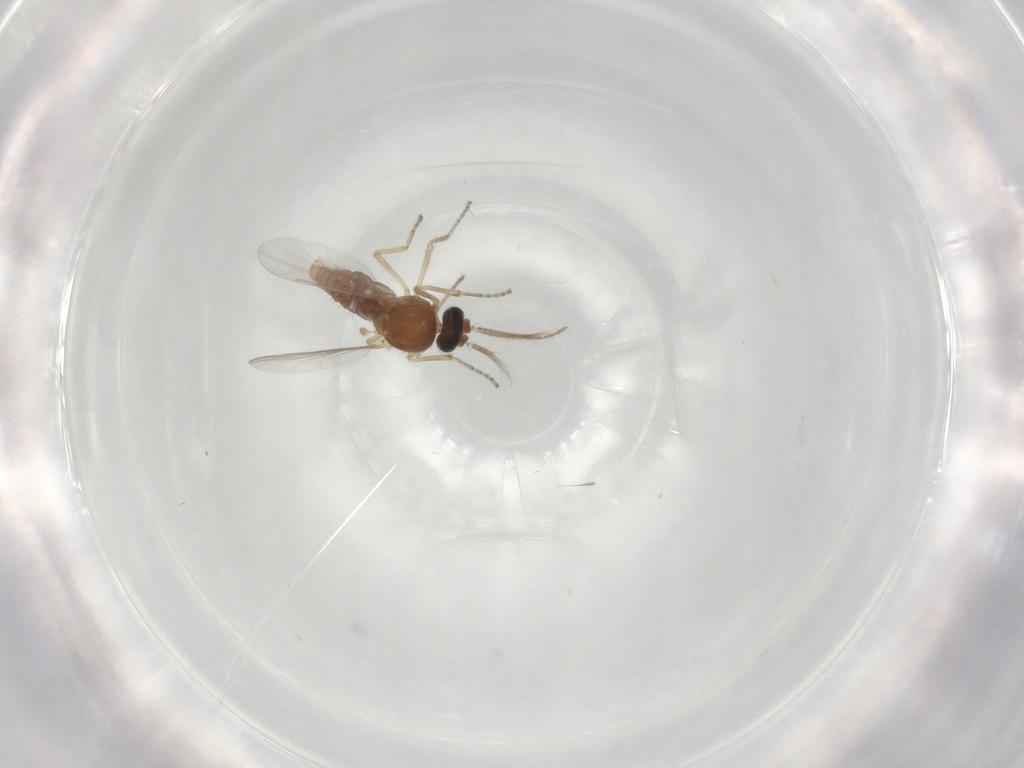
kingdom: Animalia
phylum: Arthropoda
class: Insecta
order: Diptera
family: Ceratopogonidae
